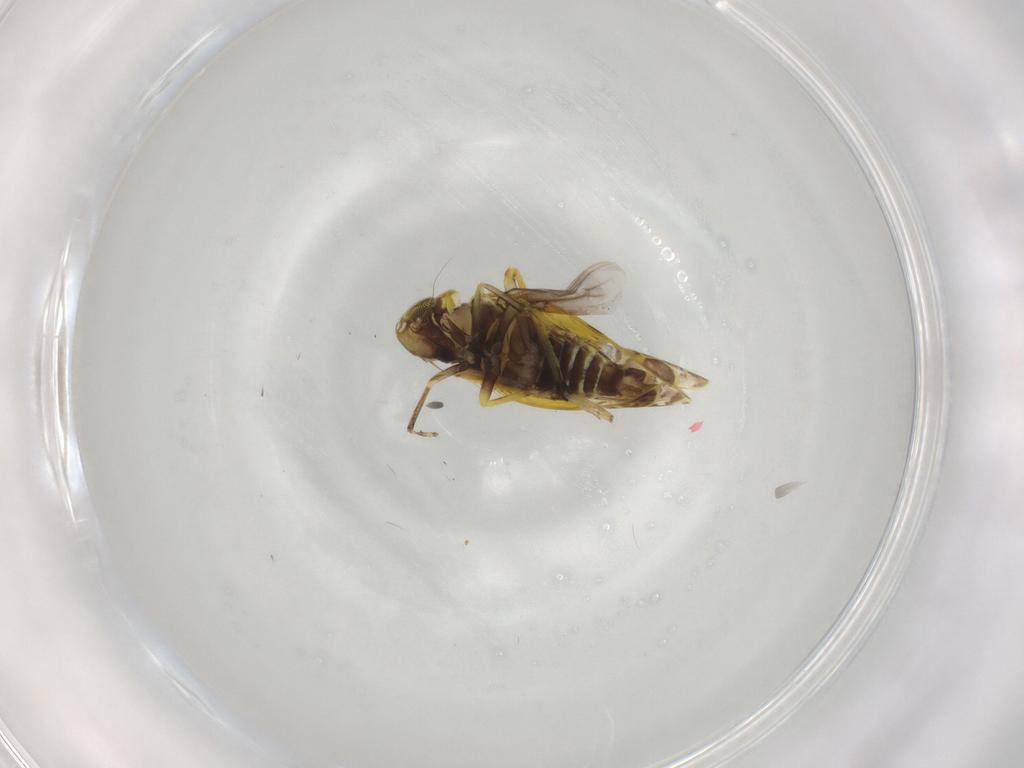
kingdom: Animalia
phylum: Arthropoda
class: Insecta
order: Hemiptera
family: Cicadellidae
